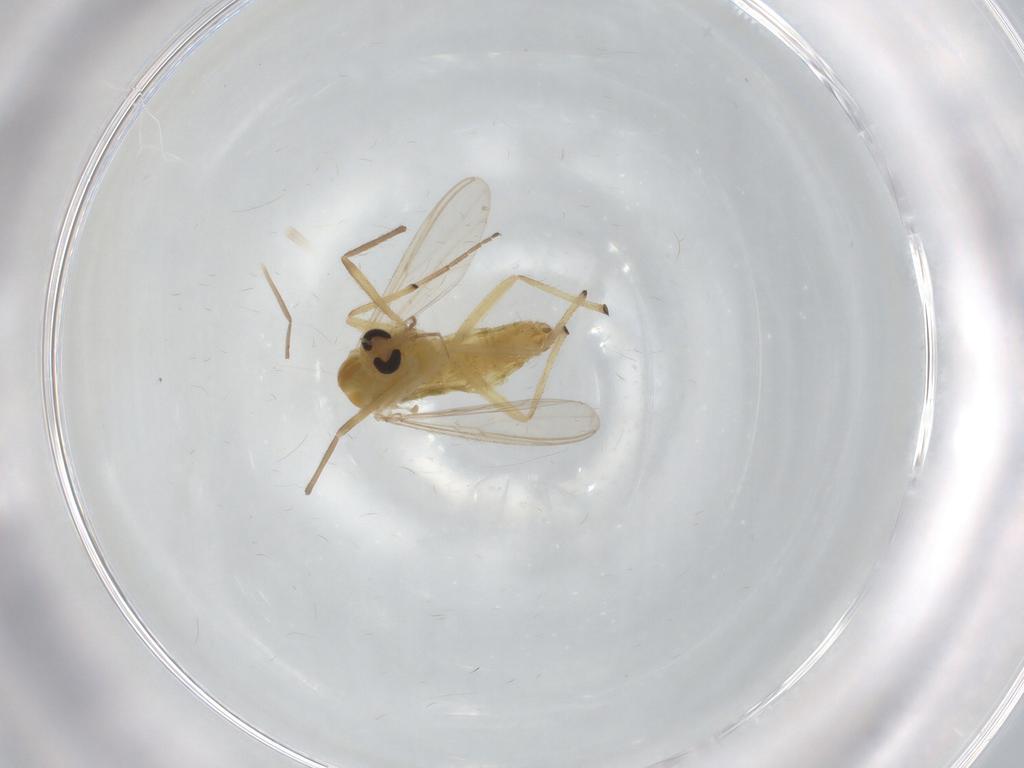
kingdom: Animalia
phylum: Arthropoda
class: Insecta
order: Diptera
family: Chironomidae
